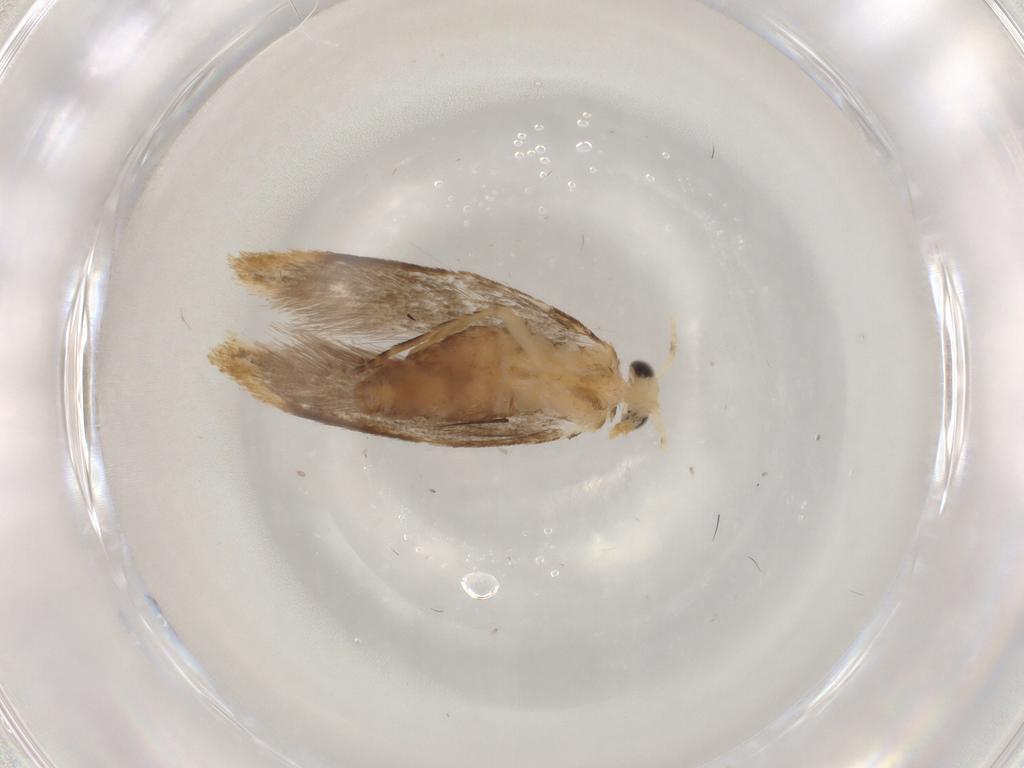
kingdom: Animalia
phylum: Arthropoda
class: Insecta
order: Lepidoptera
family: Dryadaulidae
